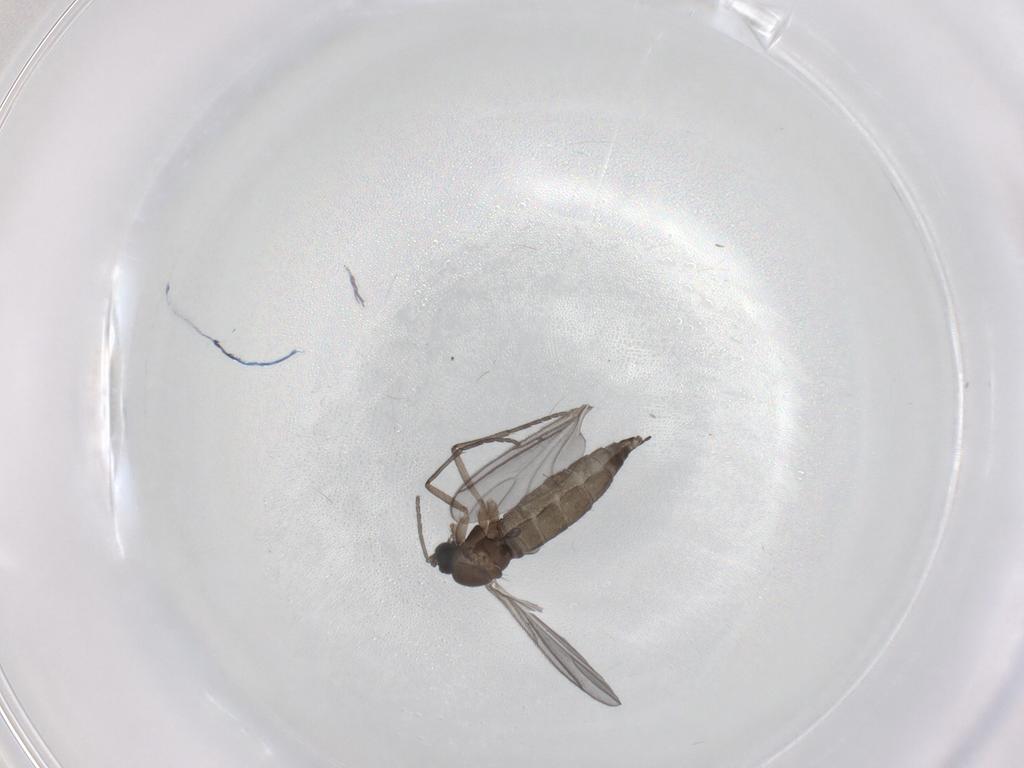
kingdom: Animalia
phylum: Arthropoda
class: Insecta
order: Diptera
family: Sciaridae
